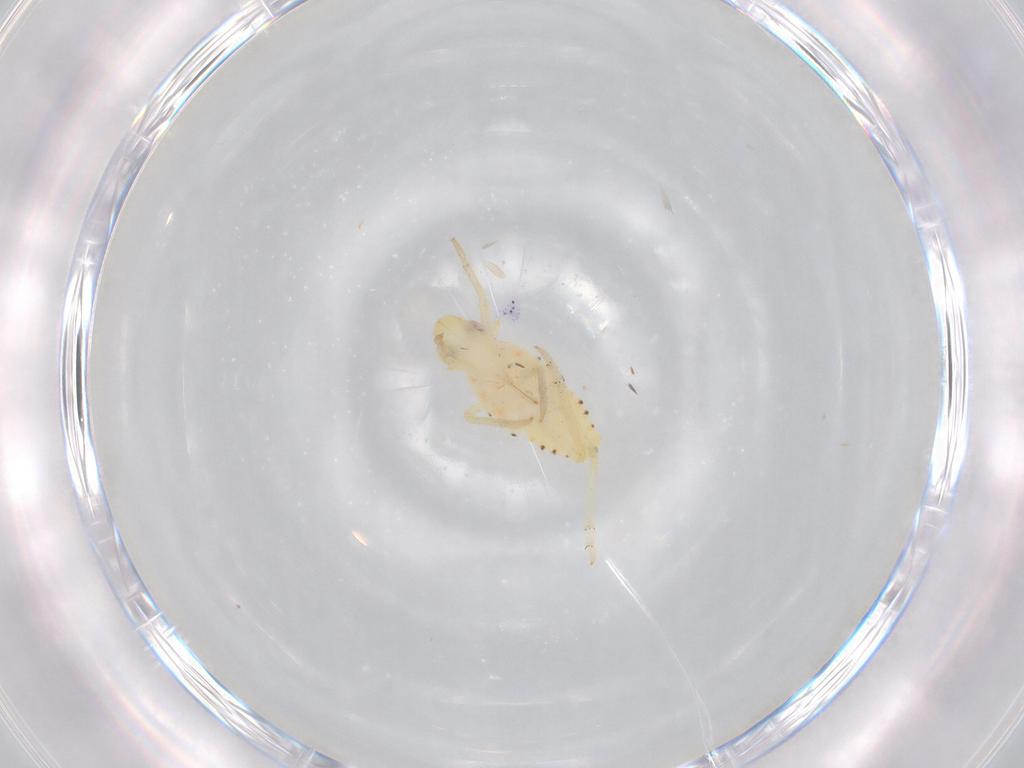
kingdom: Animalia
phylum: Arthropoda
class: Insecta
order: Hemiptera
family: Tropiduchidae
